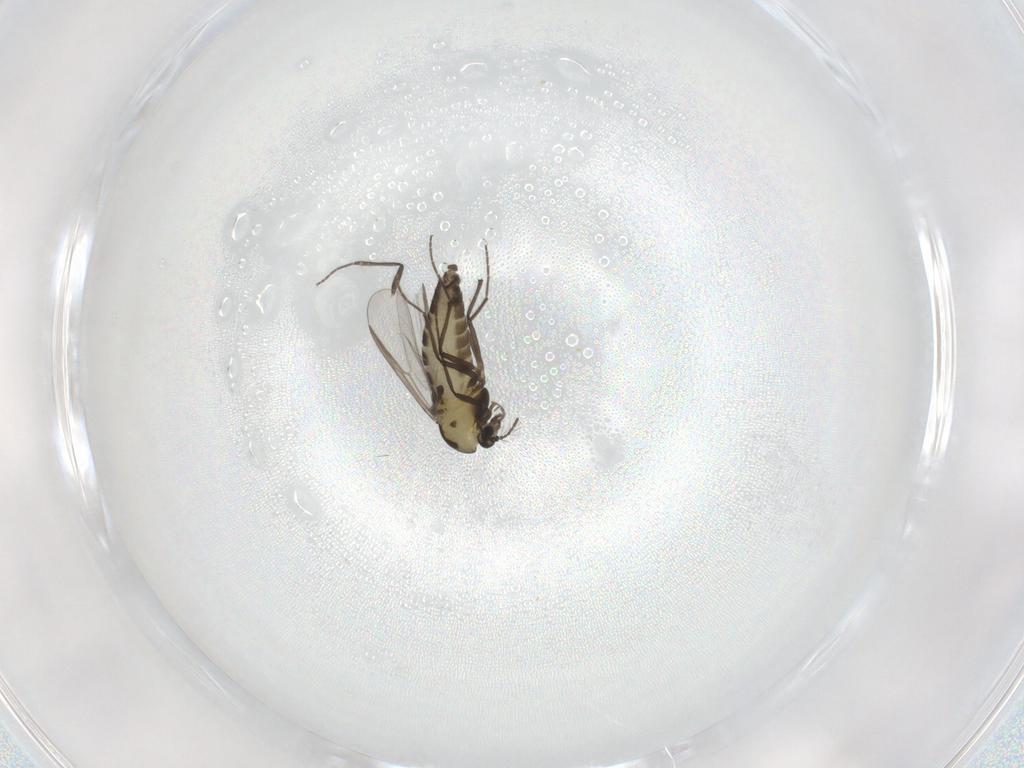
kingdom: Animalia
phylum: Arthropoda
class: Insecta
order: Diptera
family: Chironomidae
